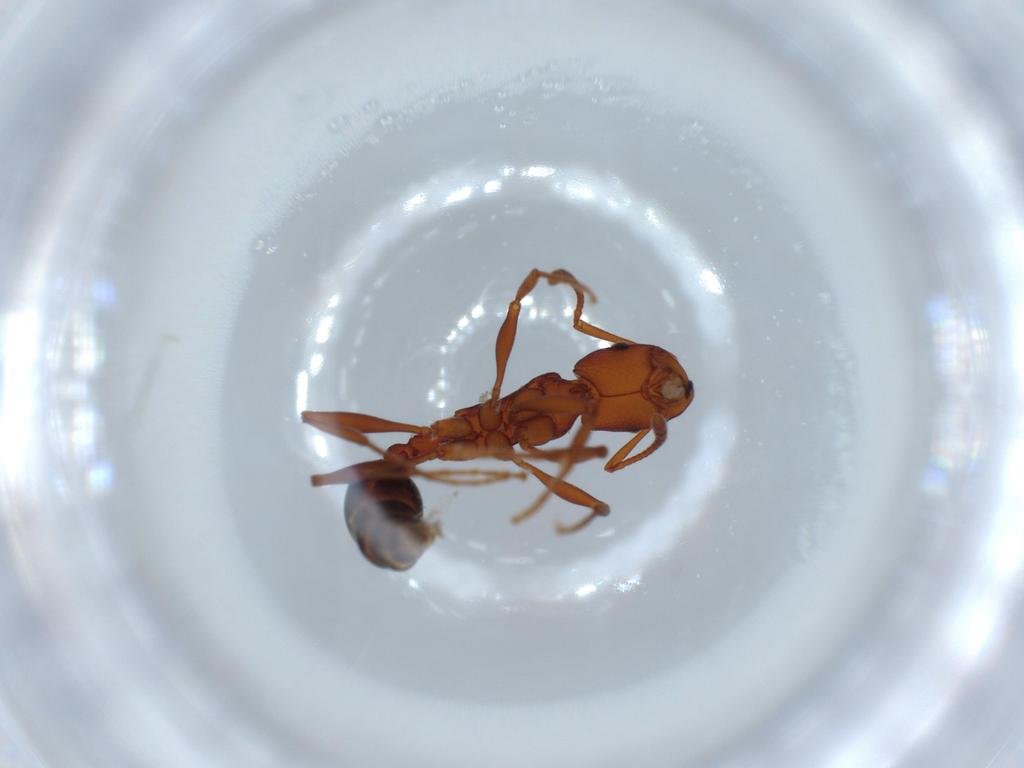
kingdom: Animalia
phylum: Arthropoda
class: Insecta
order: Hymenoptera
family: Formicidae
